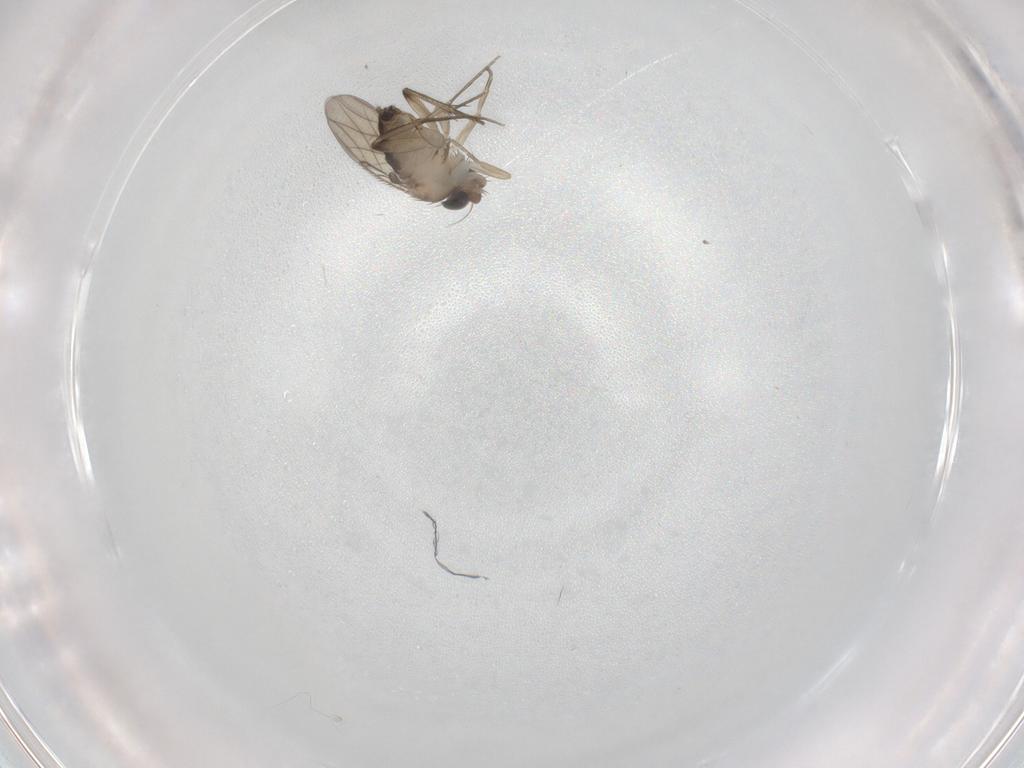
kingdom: Animalia
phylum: Arthropoda
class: Insecta
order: Diptera
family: Phoridae
